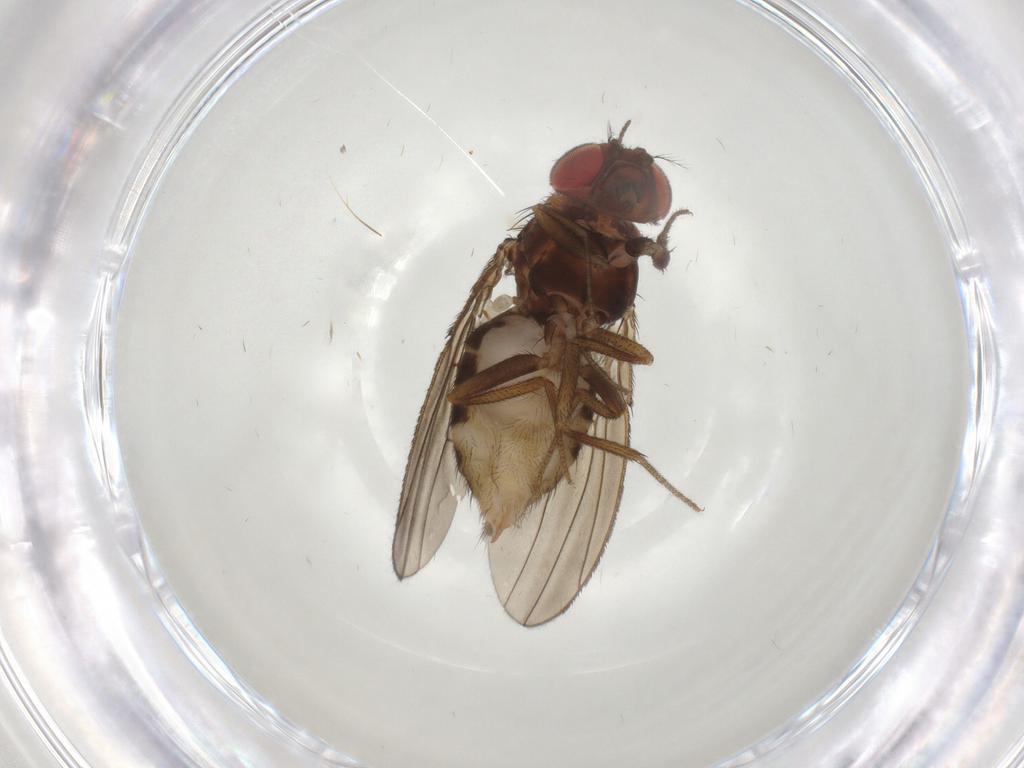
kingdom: Animalia
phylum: Arthropoda
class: Insecta
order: Diptera
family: Drosophilidae
